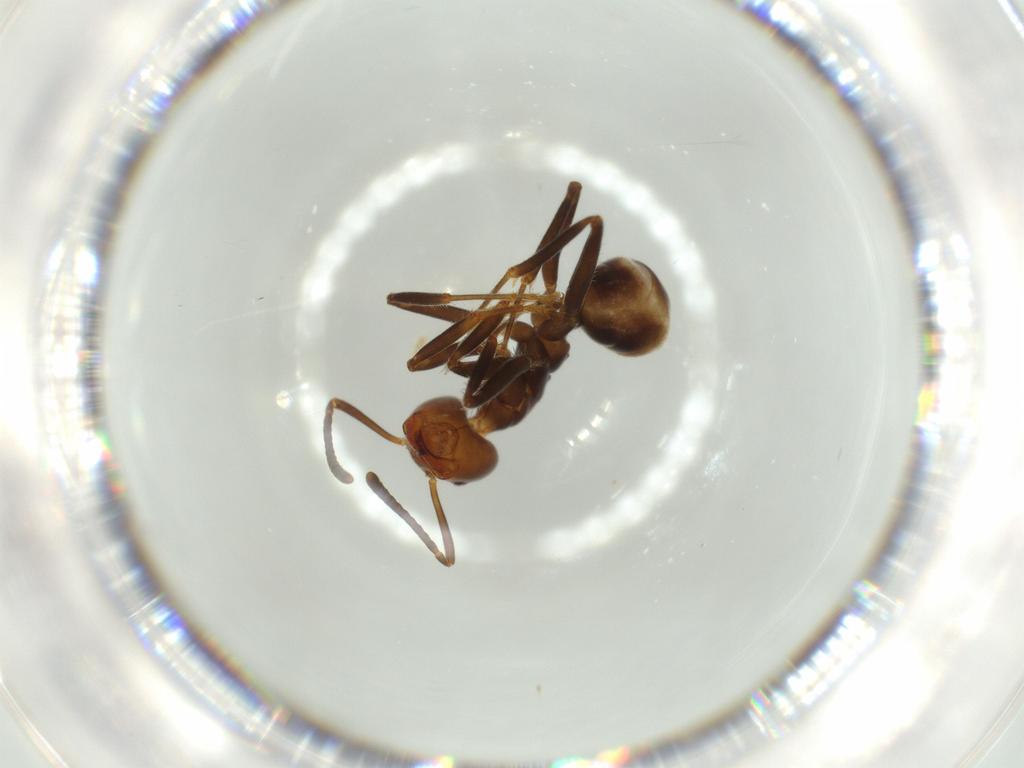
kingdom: Animalia
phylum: Arthropoda
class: Insecta
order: Hymenoptera
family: Formicidae
